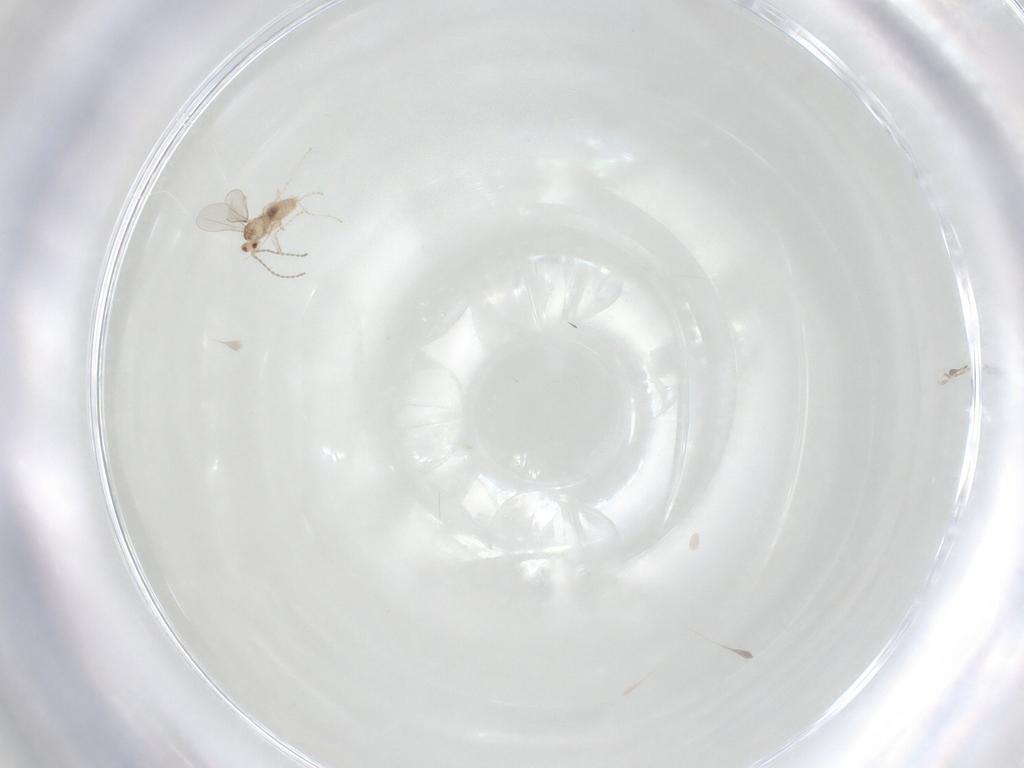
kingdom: Animalia
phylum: Arthropoda
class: Insecta
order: Diptera
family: Cecidomyiidae
